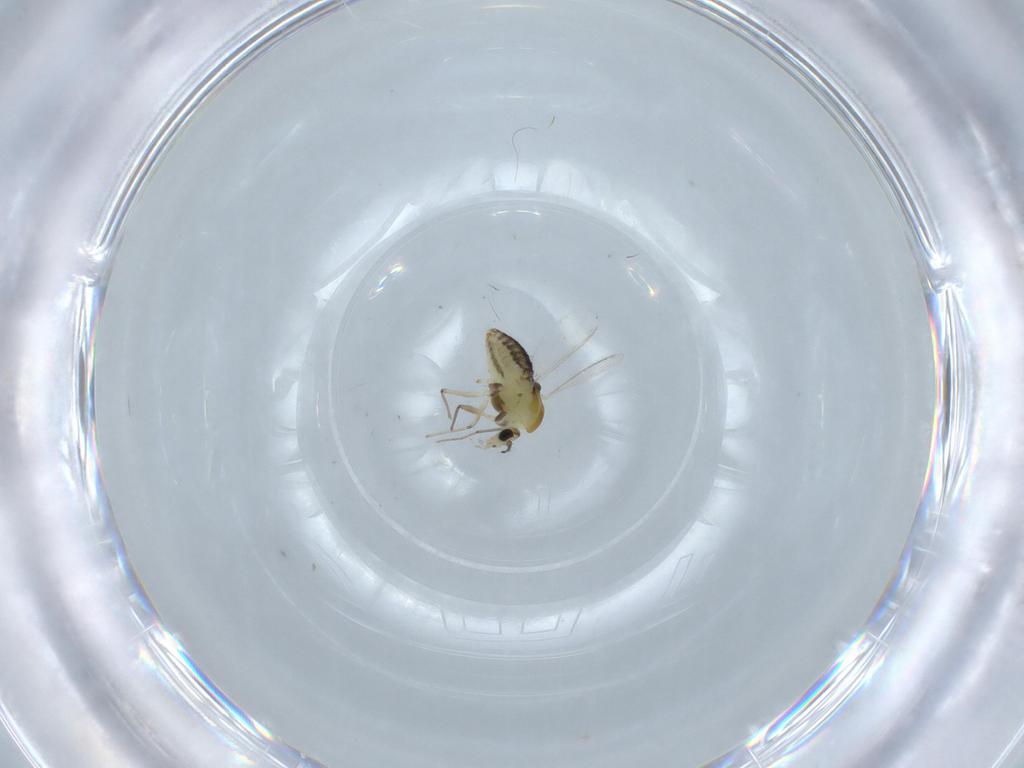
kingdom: Animalia
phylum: Arthropoda
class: Insecta
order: Diptera
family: Chironomidae
